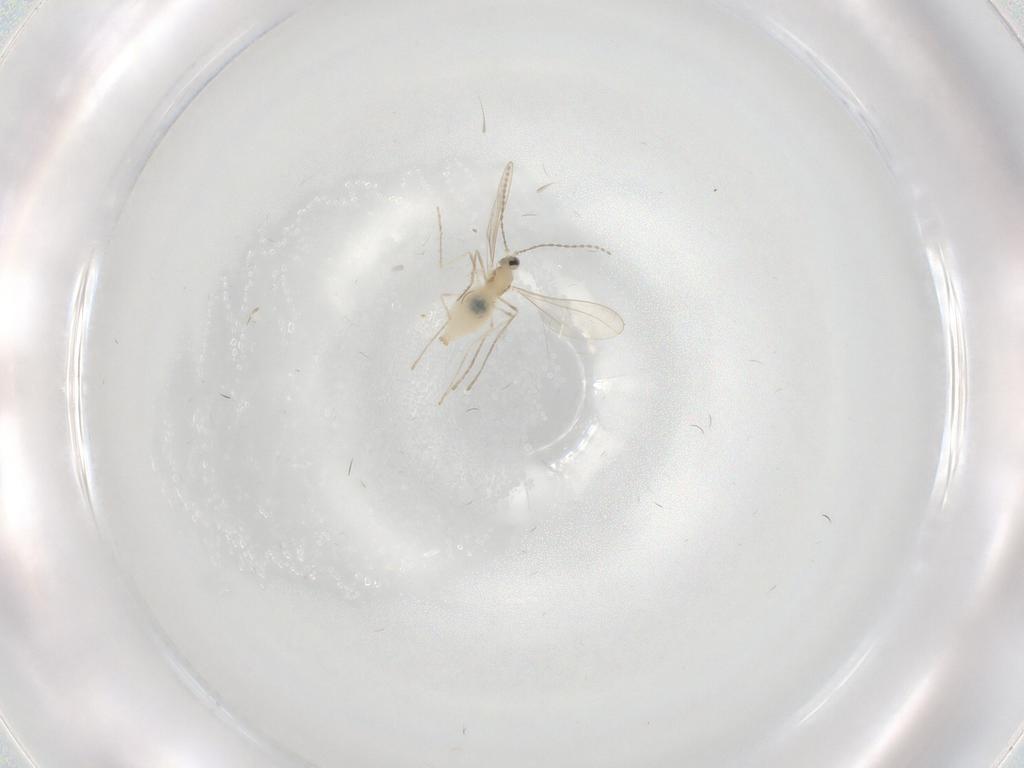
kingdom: Animalia
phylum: Arthropoda
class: Insecta
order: Diptera
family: Cecidomyiidae
